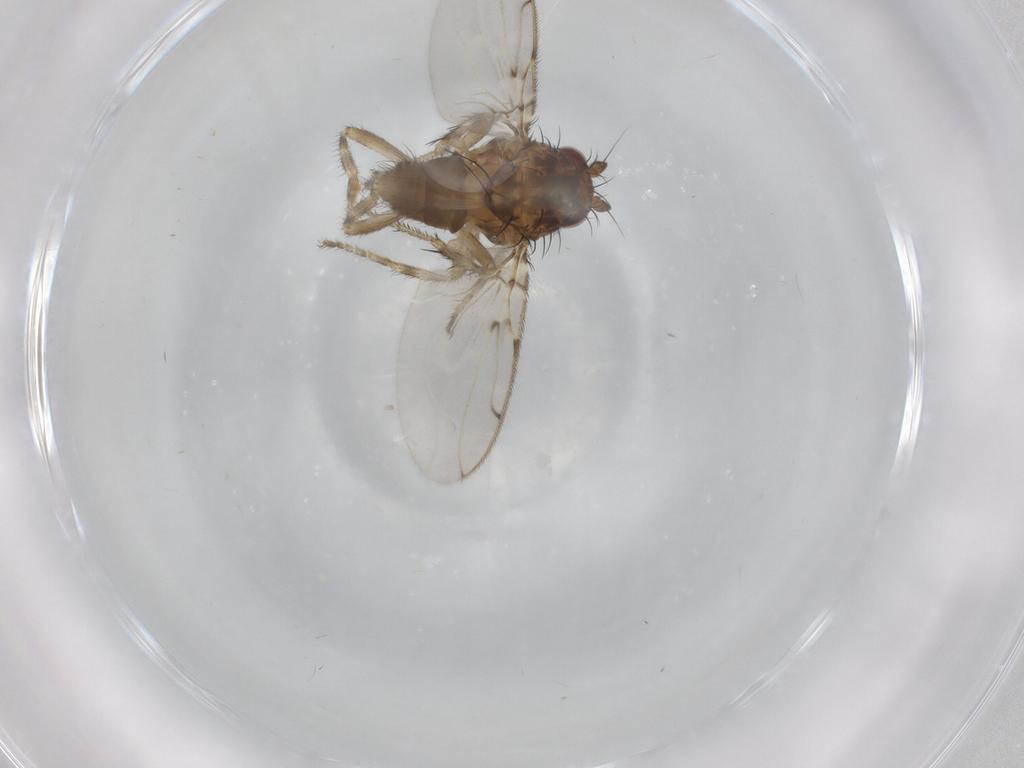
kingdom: Animalia
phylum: Arthropoda
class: Insecta
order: Diptera
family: Sphaeroceridae
